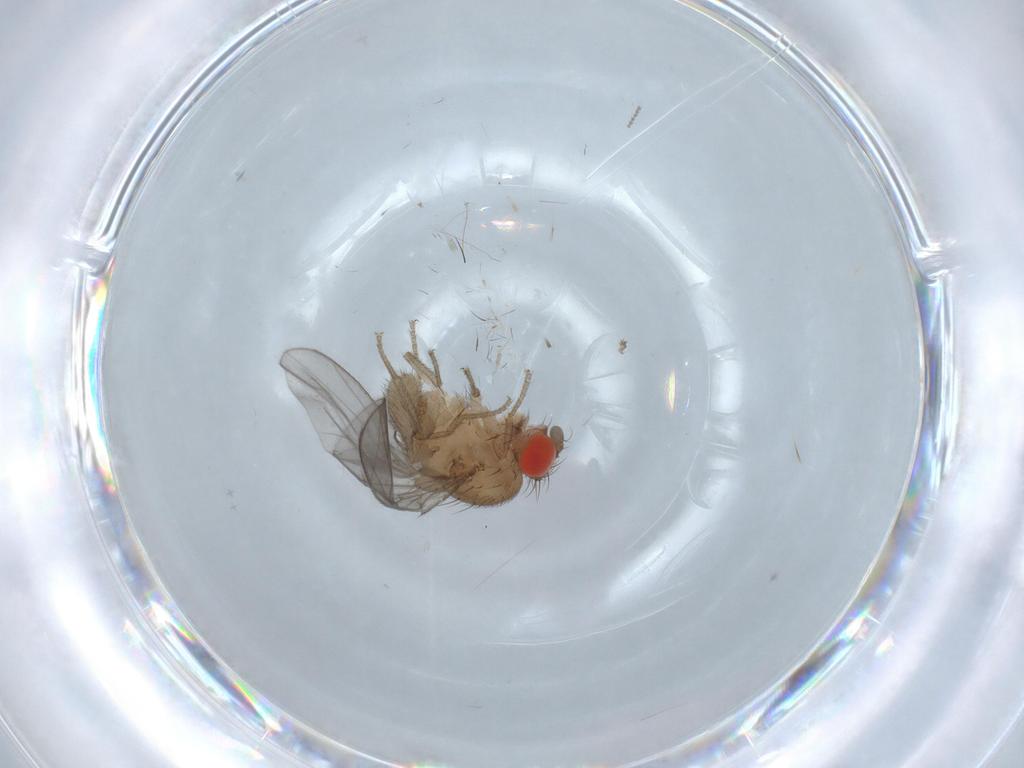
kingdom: Animalia
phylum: Arthropoda
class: Insecta
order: Diptera
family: Drosophilidae
